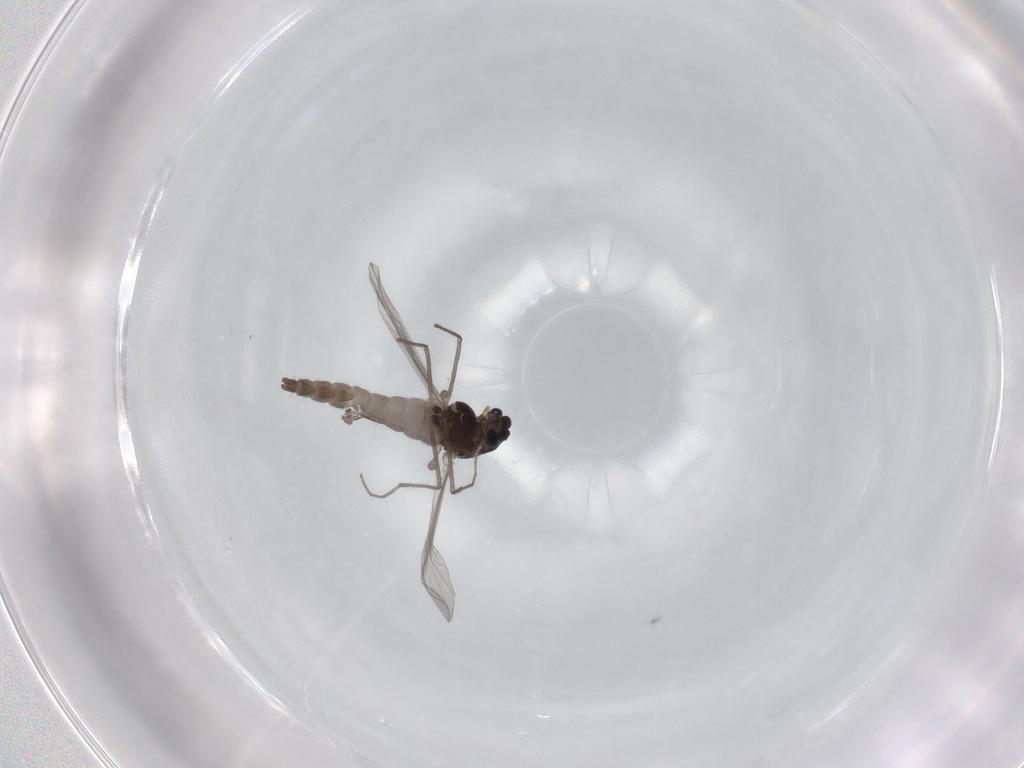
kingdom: Animalia
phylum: Arthropoda
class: Insecta
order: Diptera
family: Chironomidae
